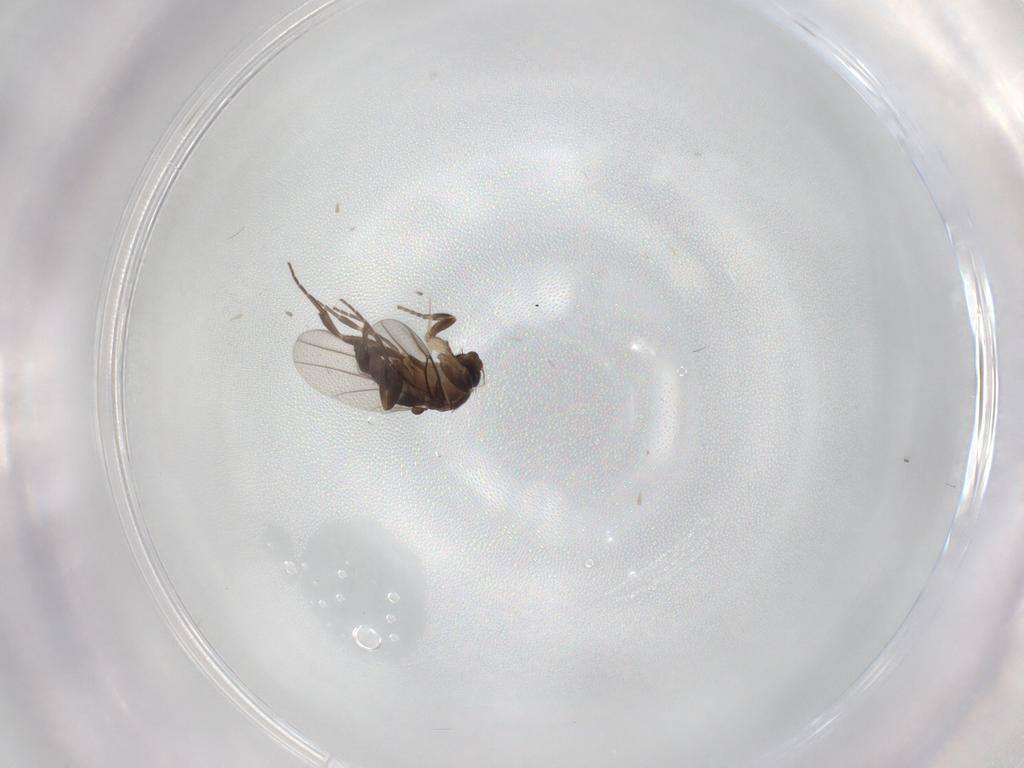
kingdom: Animalia
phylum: Arthropoda
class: Insecta
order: Diptera
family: Chironomidae
